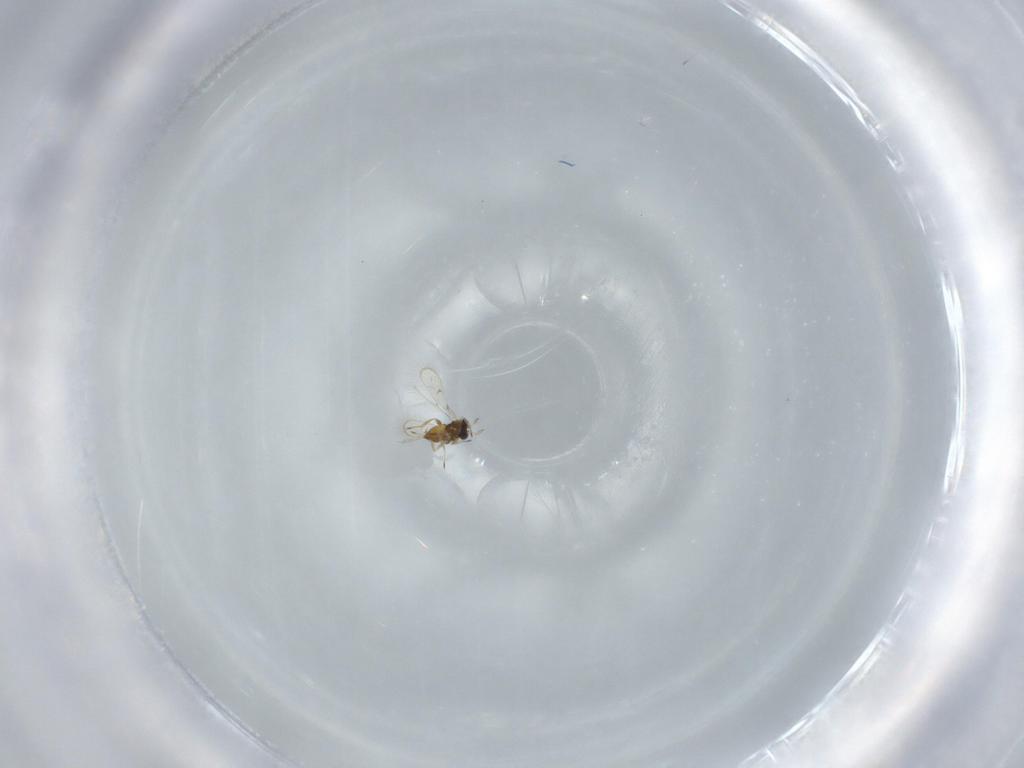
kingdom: Animalia
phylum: Arthropoda
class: Insecta
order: Hymenoptera
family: Trichogrammatidae
